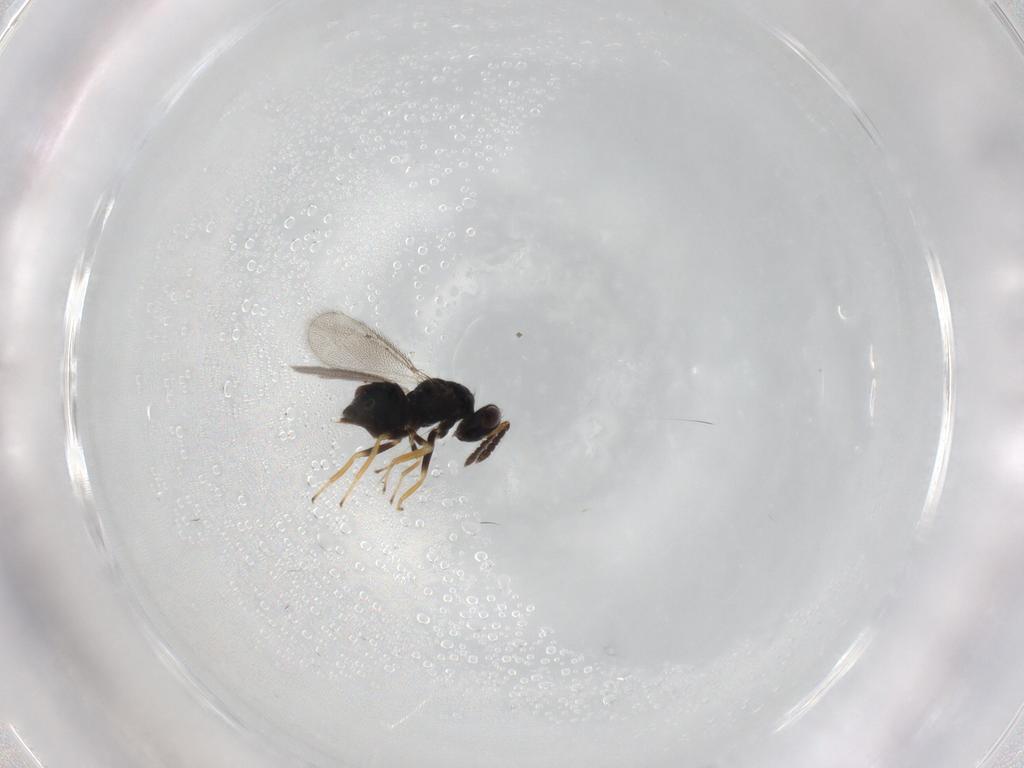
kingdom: Animalia
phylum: Arthropoda
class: Insecta
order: Hymenoptera
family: Eulophidae
